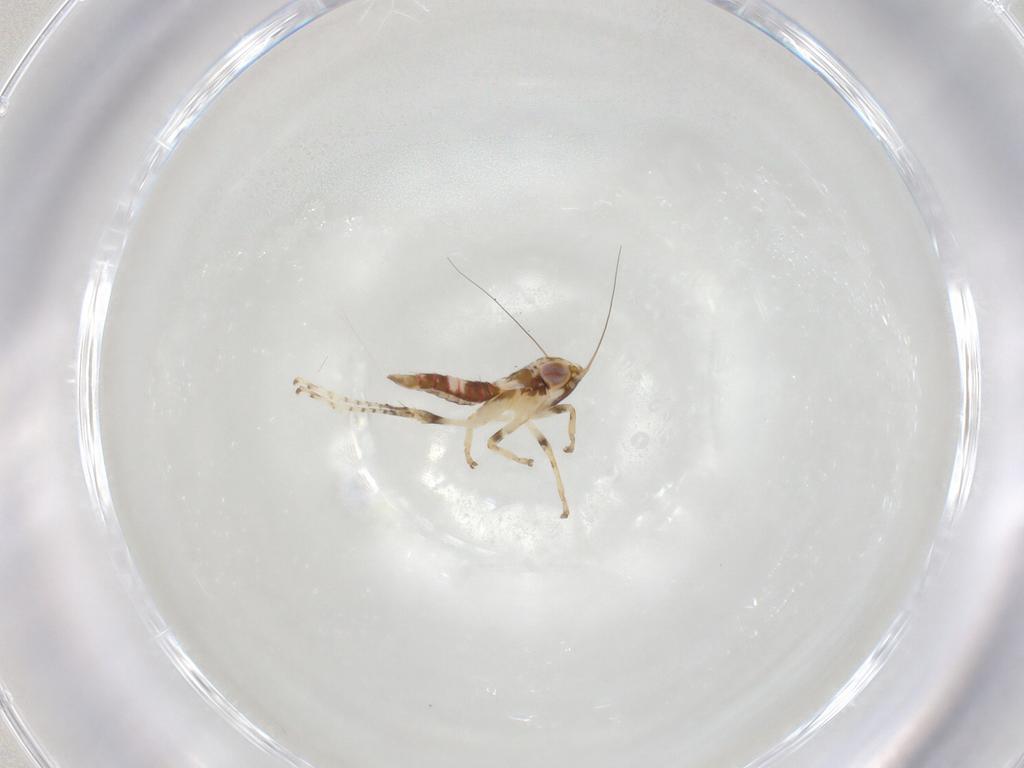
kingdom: Animalia
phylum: Arthropoda
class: Insecta
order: Hemiptera
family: Cicadellidae
